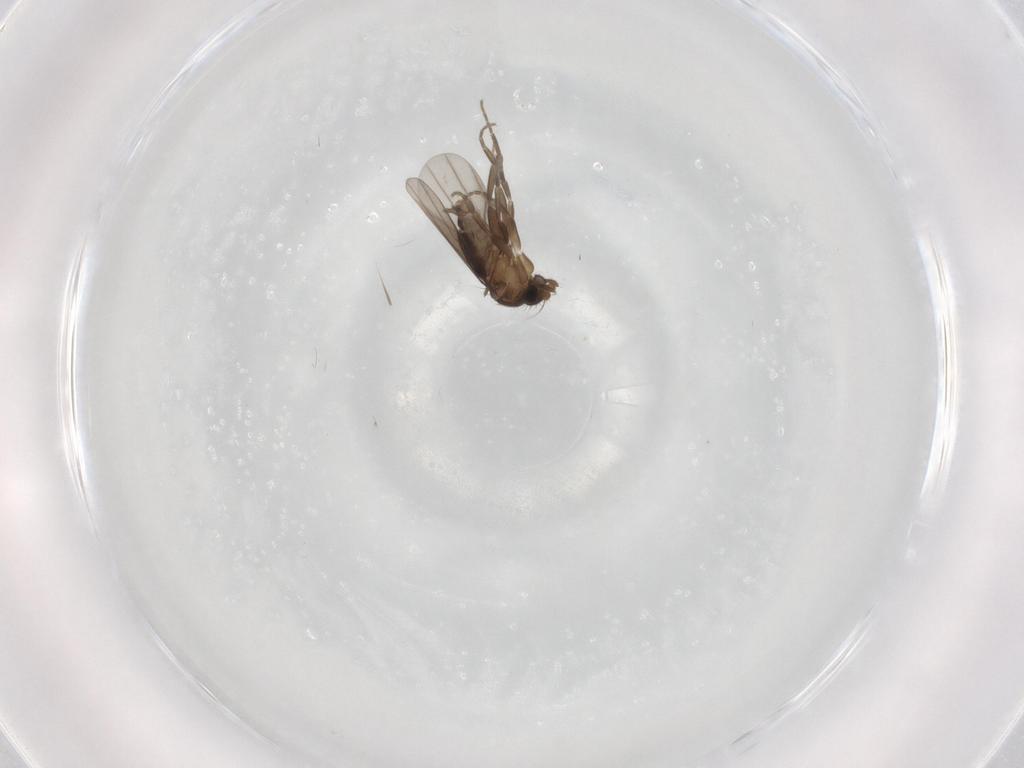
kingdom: Animalia
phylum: Arthropoda
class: Insecta
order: Diptera
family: Phoridae
